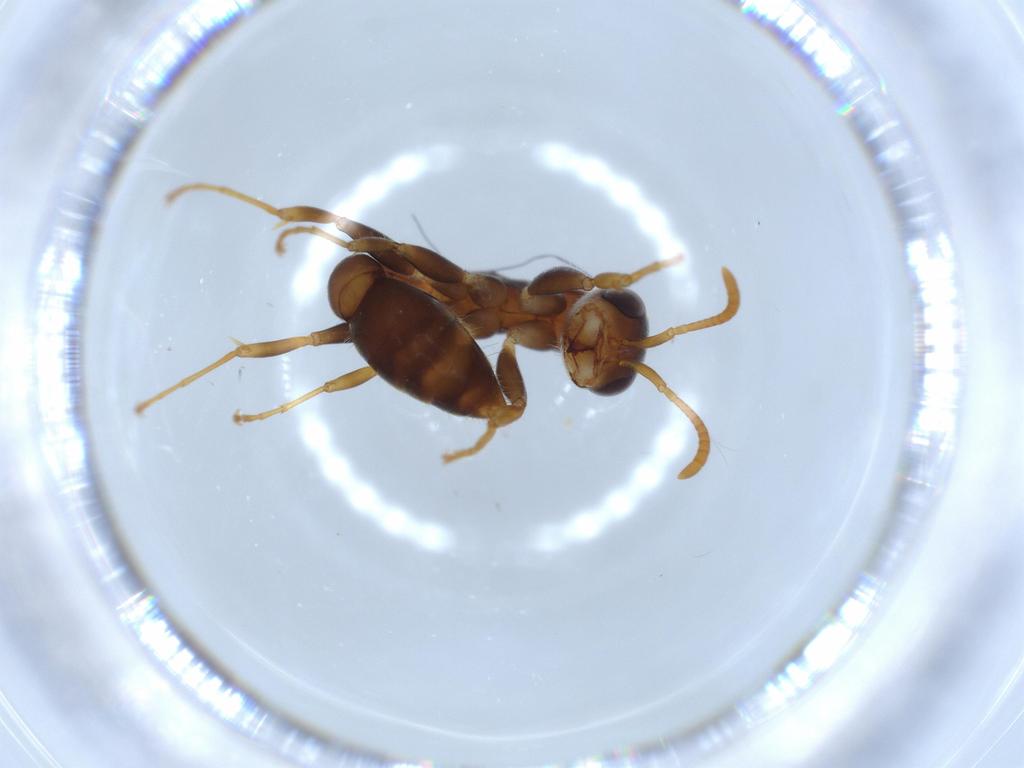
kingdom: Animalia
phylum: Arthropoda
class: Insecta
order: Hymenoptera
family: Formicidae
